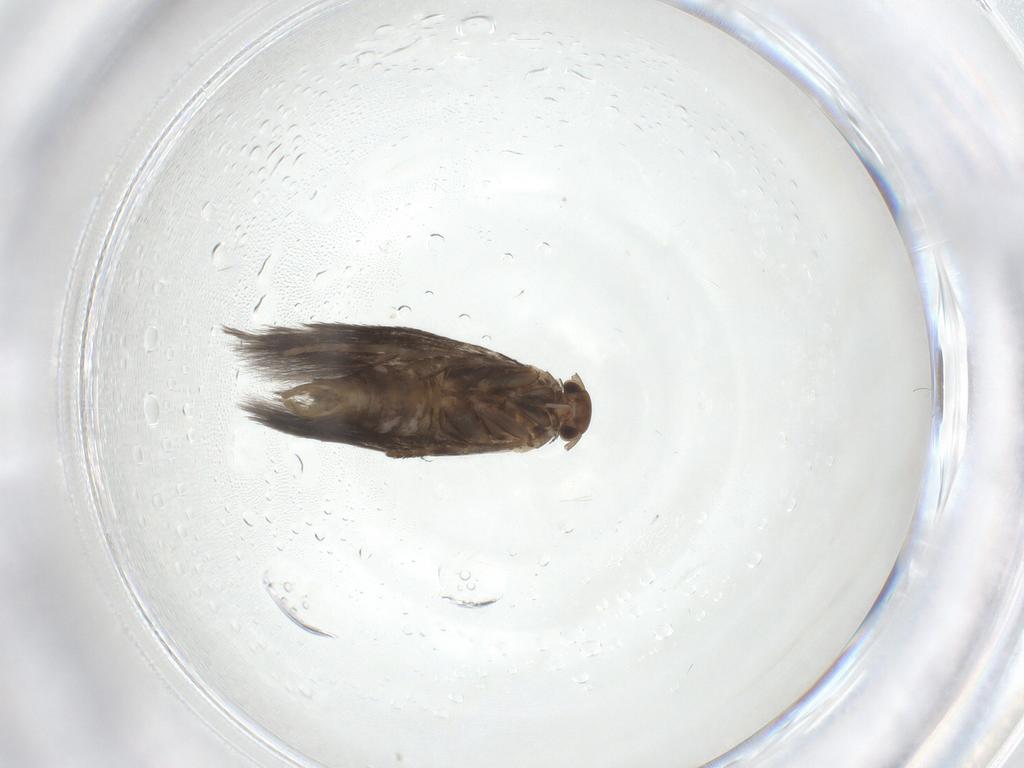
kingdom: Animalia
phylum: Arthropoda
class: Insecta
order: Lepidoptera
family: Elachistidae
